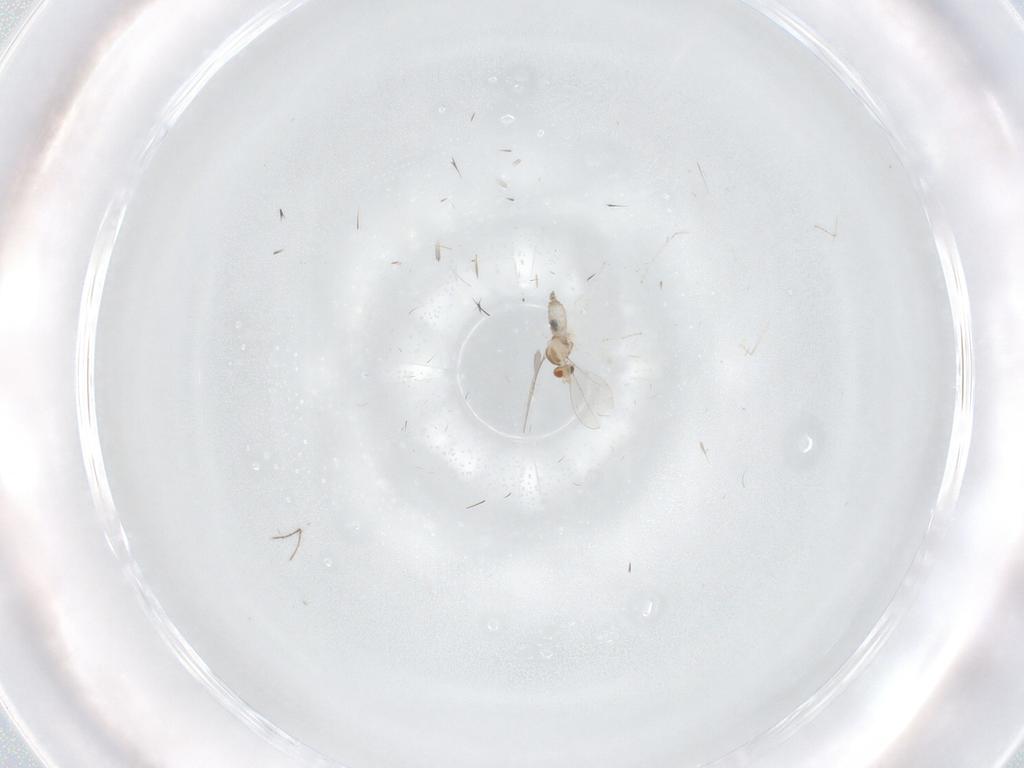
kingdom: Animalia
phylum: Arthropoda
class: Insecta
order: Diptera
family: Ceratopogonidae
